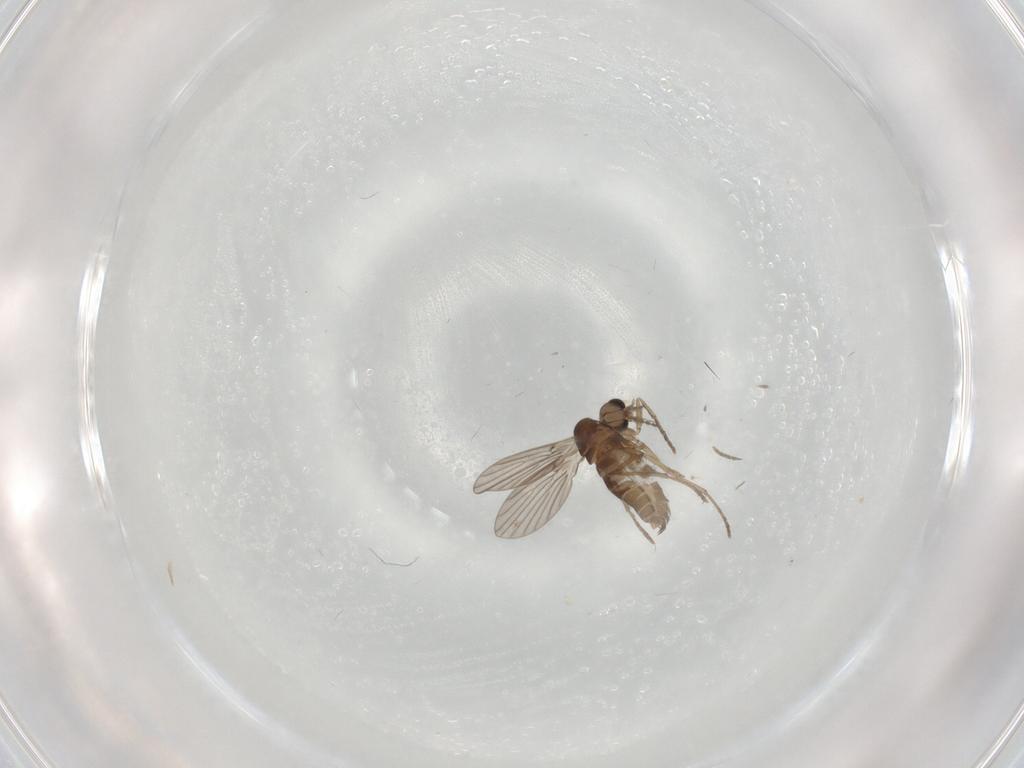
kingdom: Animalia
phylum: Arthropoda
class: Insecta
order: Diptera
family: Phoridae
